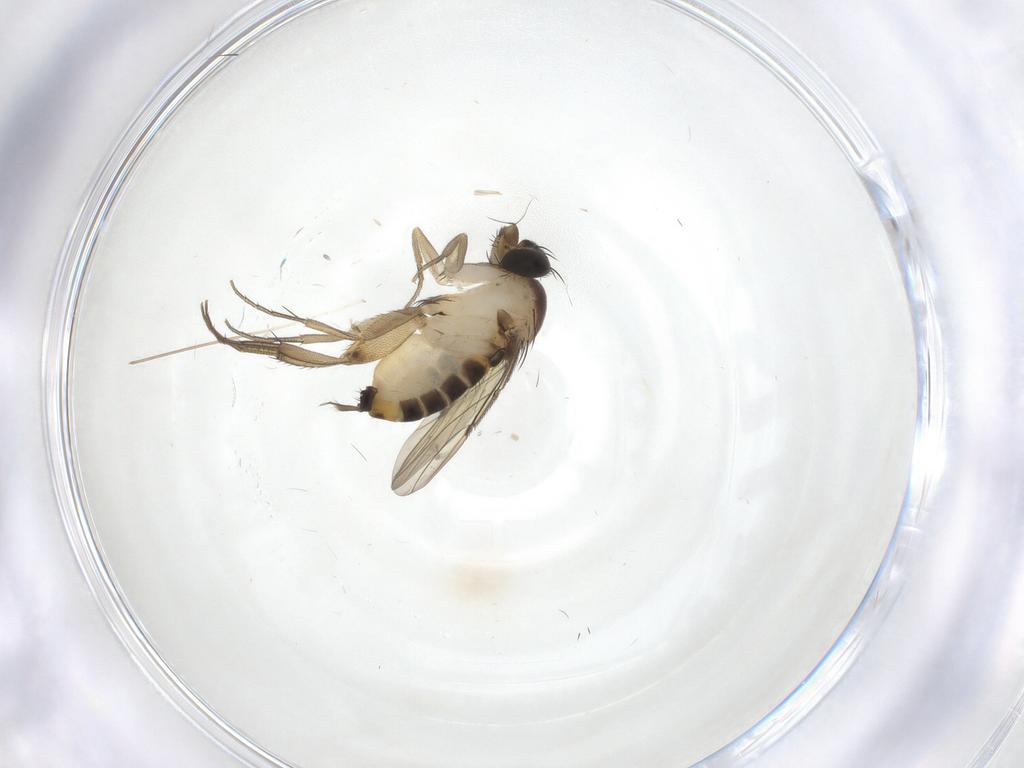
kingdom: Animalia
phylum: Arthropoda
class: Insecta
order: Diptera
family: Phoridae
